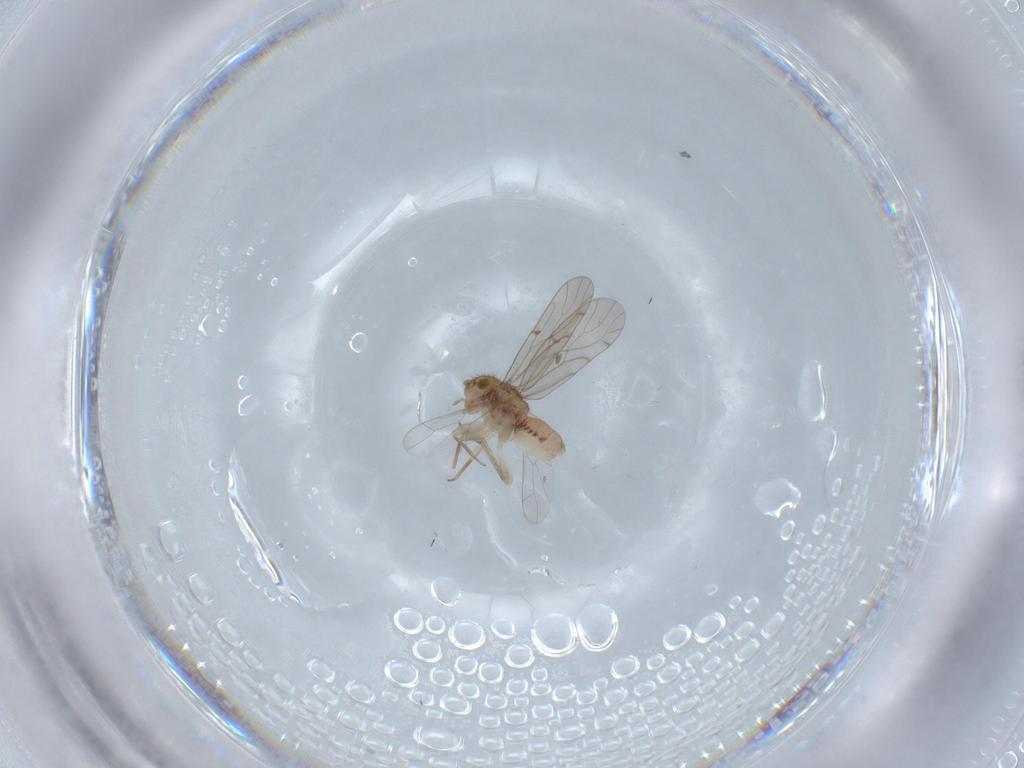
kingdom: Animalia
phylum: Arthropoda
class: Insecta
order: Psocodea
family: Ectopsocidae
